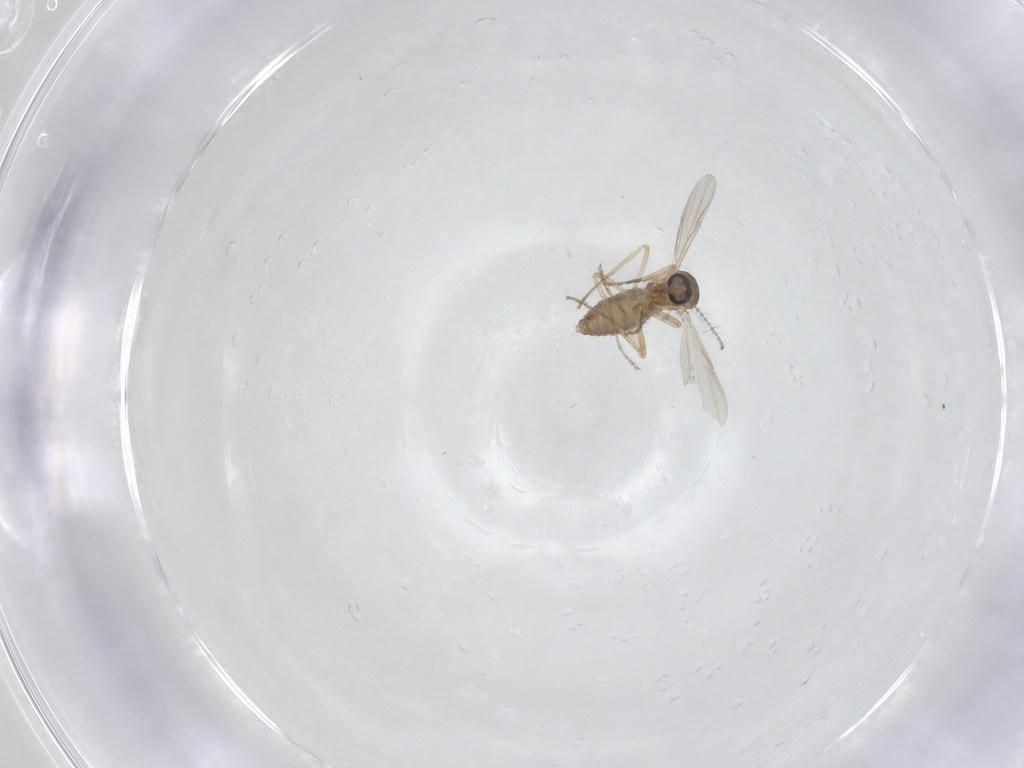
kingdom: Animalia
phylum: Arthropoda
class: Insecta
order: Diptera
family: Ceratopogonidae
